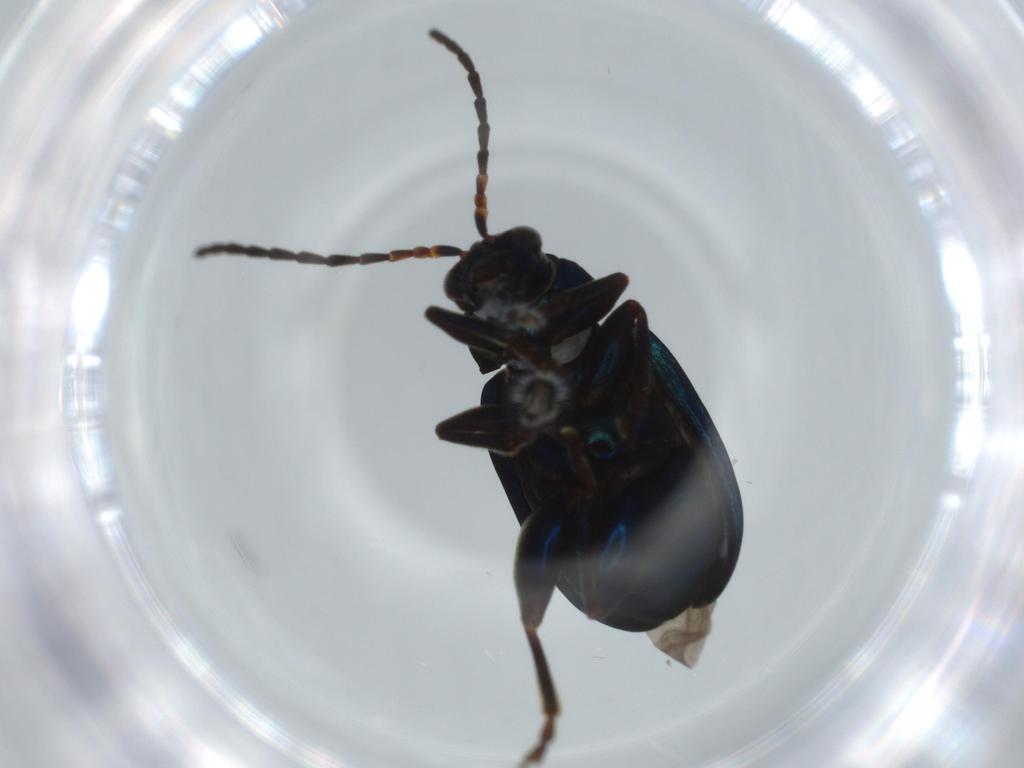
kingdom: Animalia
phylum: Arthropoda
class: Insecta
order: Coleoptera
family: Chrysomelidae
